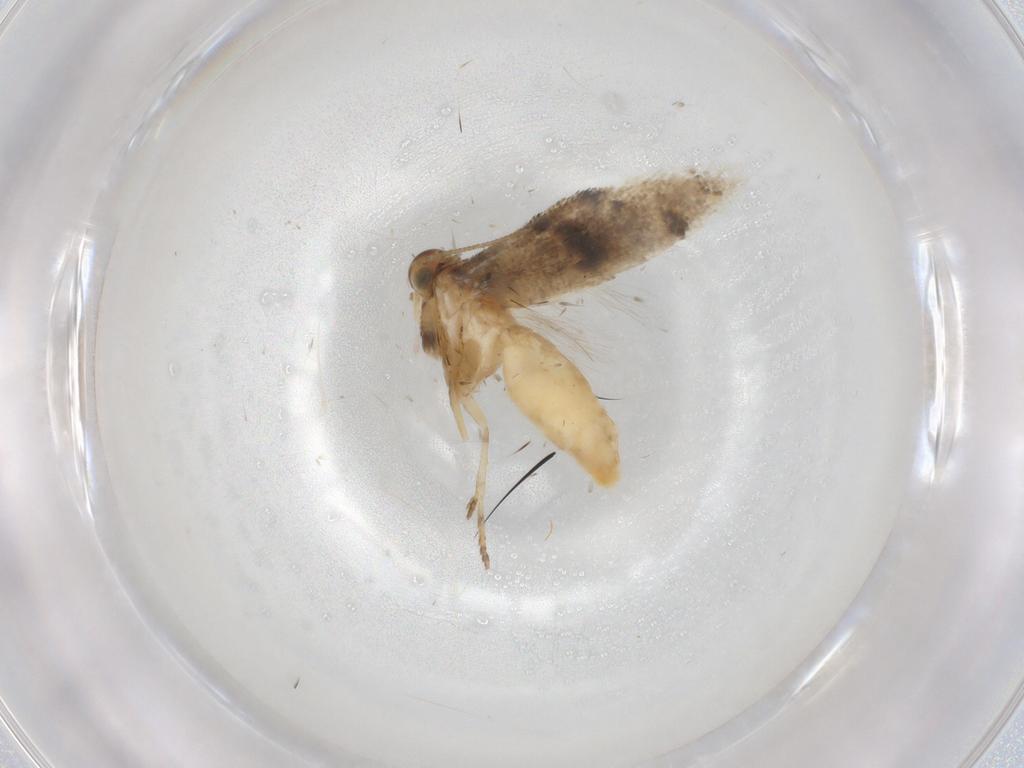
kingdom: Animalia
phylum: Arthropoda
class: Insecta
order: Lepidoptera
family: Gelechiidae
